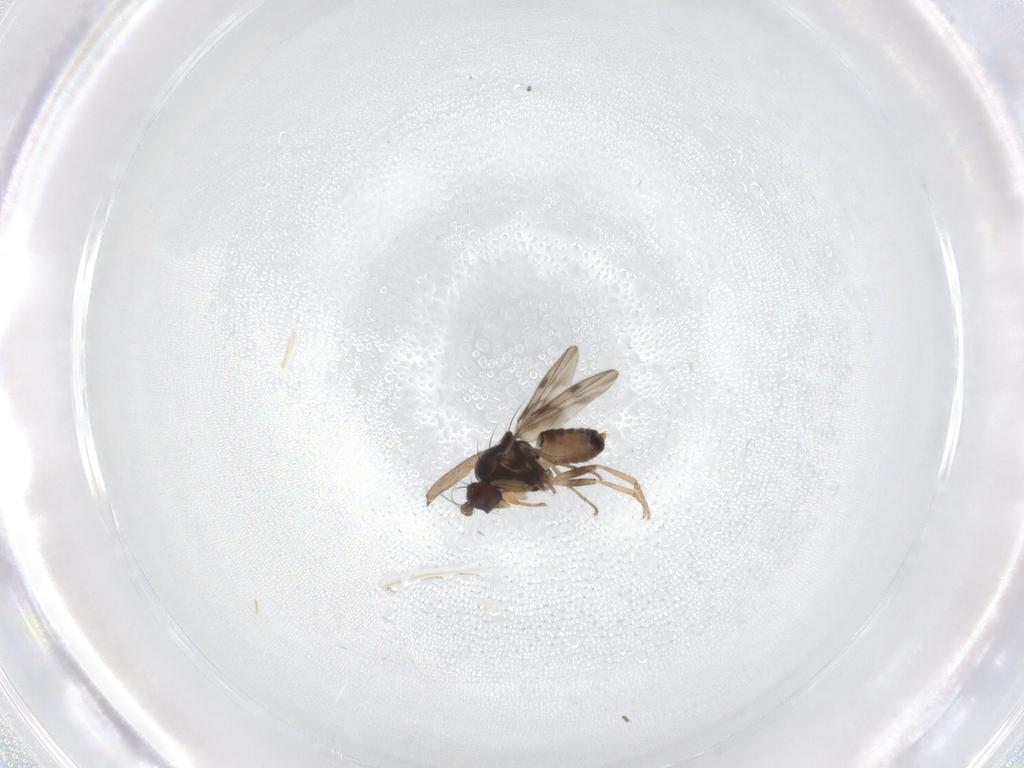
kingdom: Animalia
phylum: Arthropoda
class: Insecta
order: Diptera
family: Sphaeroceridae
